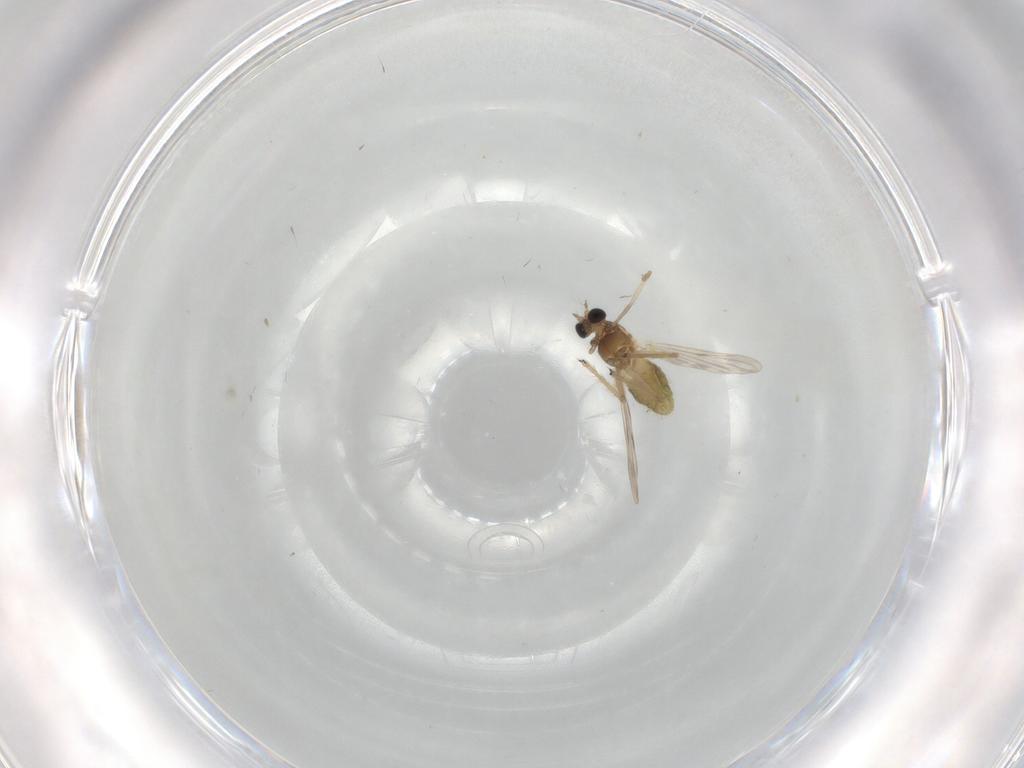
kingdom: Animalia
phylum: Arthropoda
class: Insecta
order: Diptera
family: Chironomidae
